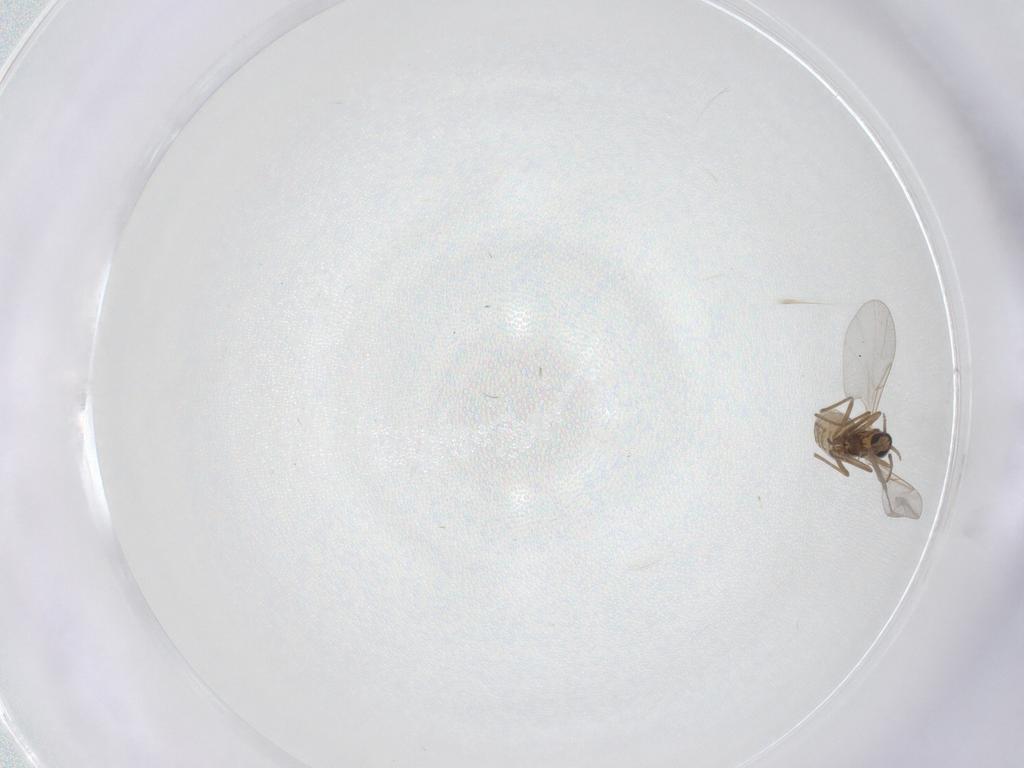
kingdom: Animalia
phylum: Arthropoda
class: Insecta
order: Diptera
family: Cecidomyiidae
